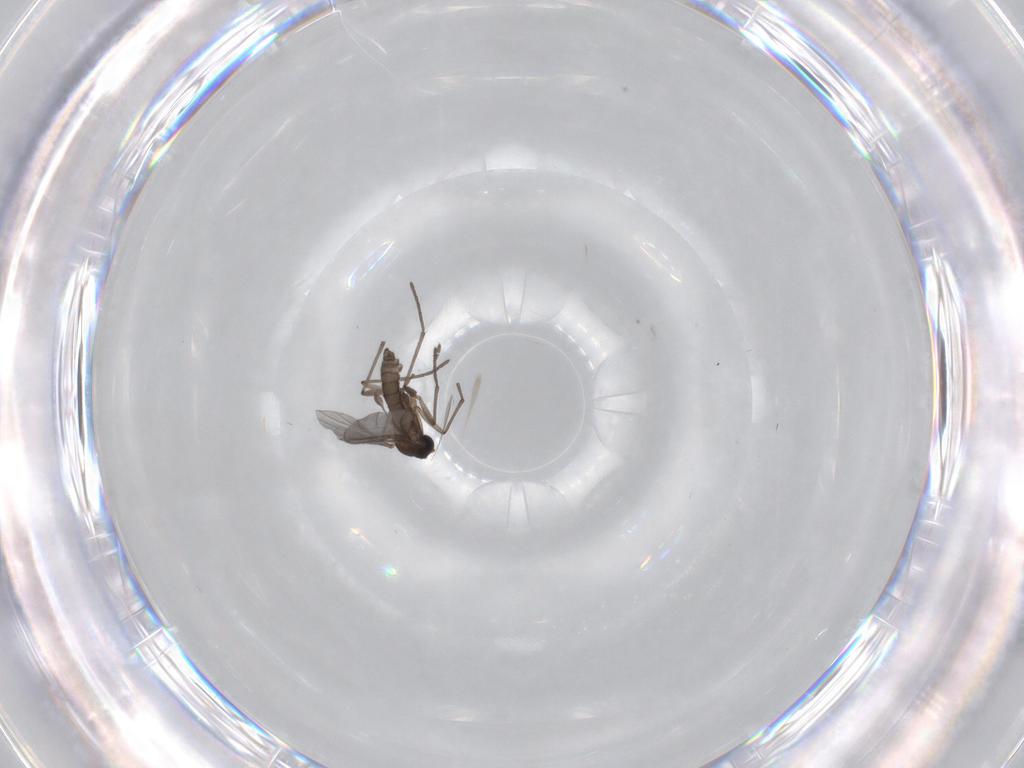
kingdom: Animalia
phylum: Arthropoda
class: Insecta
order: Diptera
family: Sciaridae
